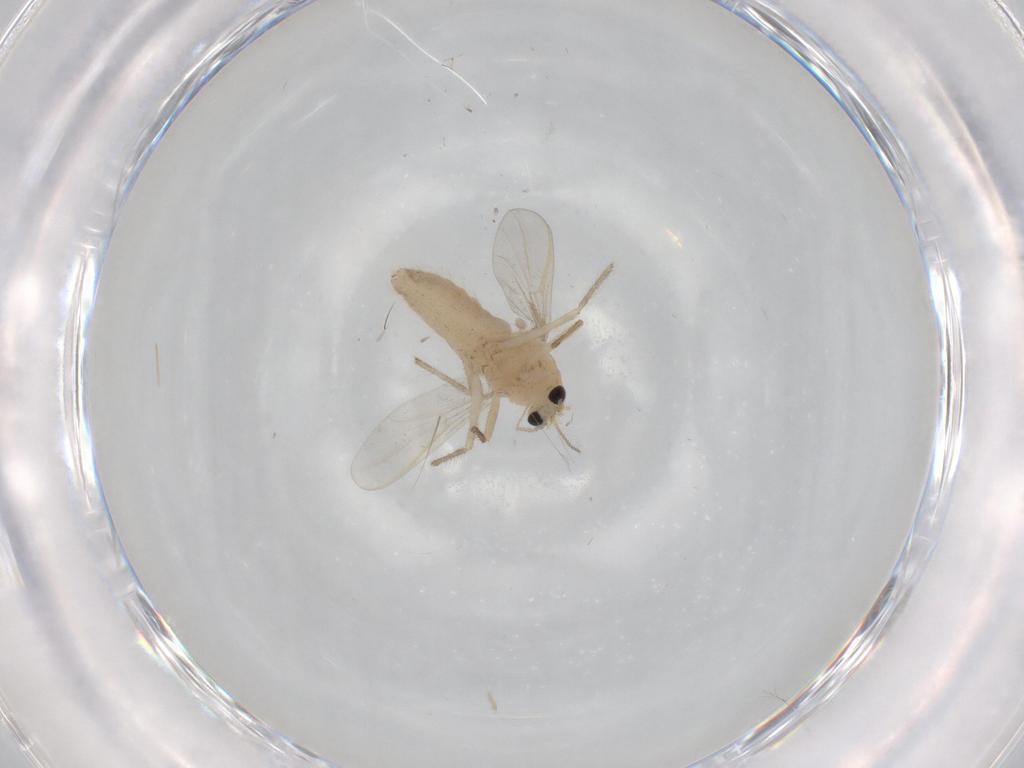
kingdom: Animalia
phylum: Arthropoda
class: Insecta
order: Diptera
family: Chironomidae
